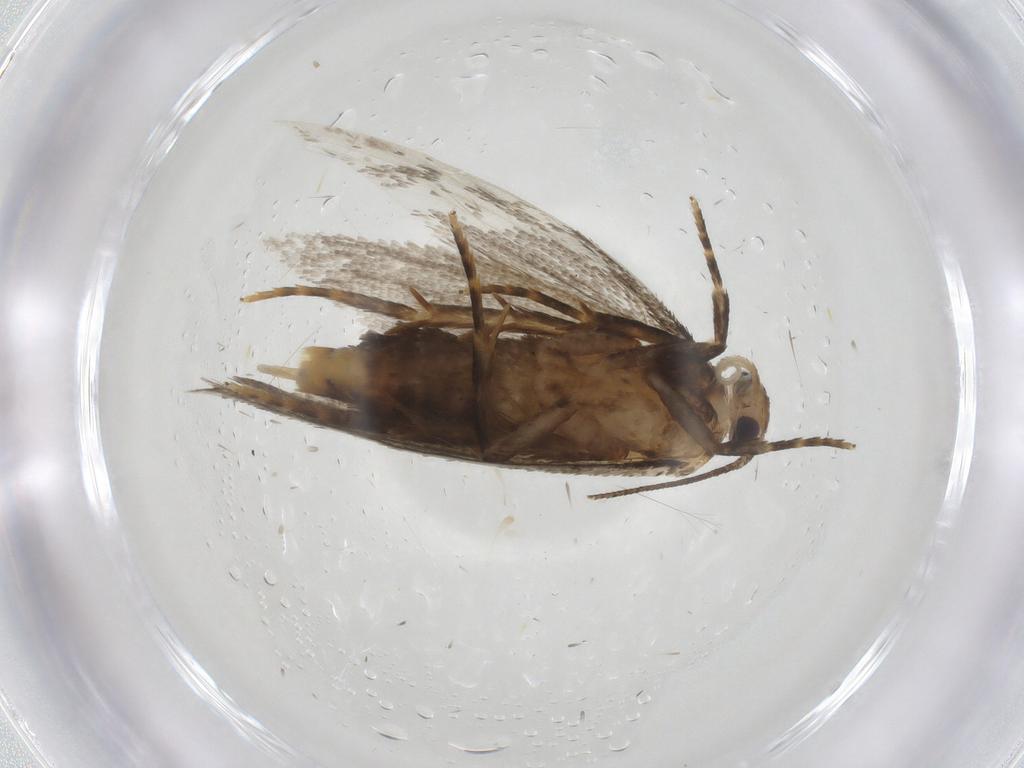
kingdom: Animalia
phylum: Arthropoda
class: Insecta
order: Lepidoptera
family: Oecophoridae
